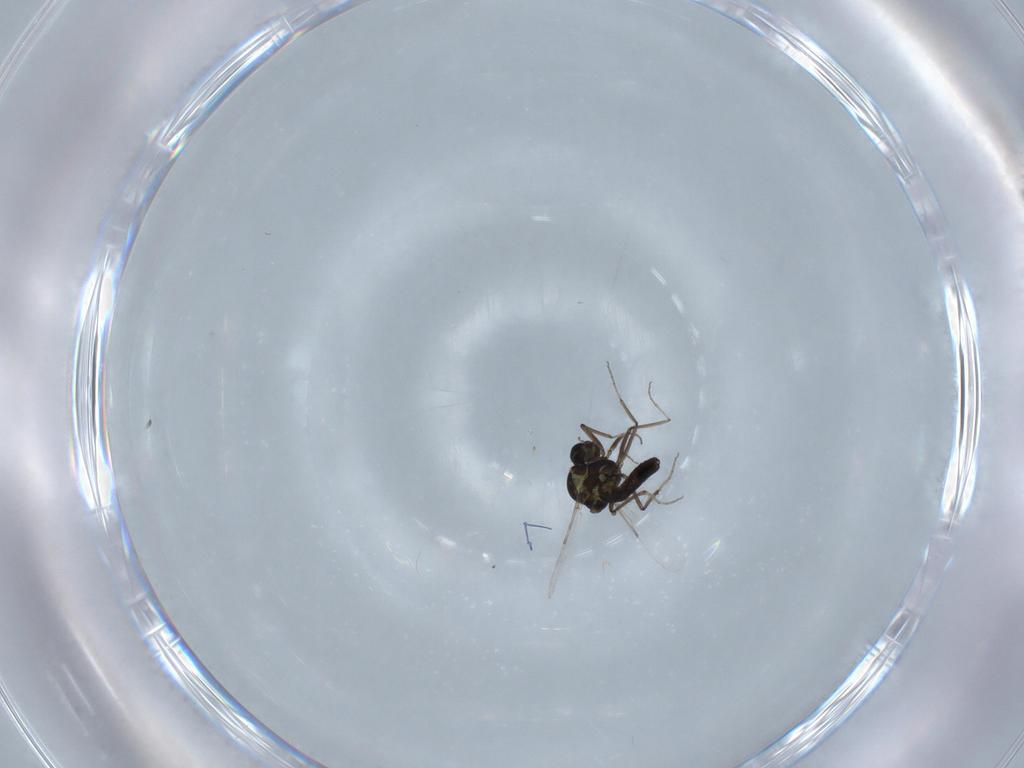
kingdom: Animalia
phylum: Arthropoda
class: Insecta
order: Diptera
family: Ceratopogonidae
